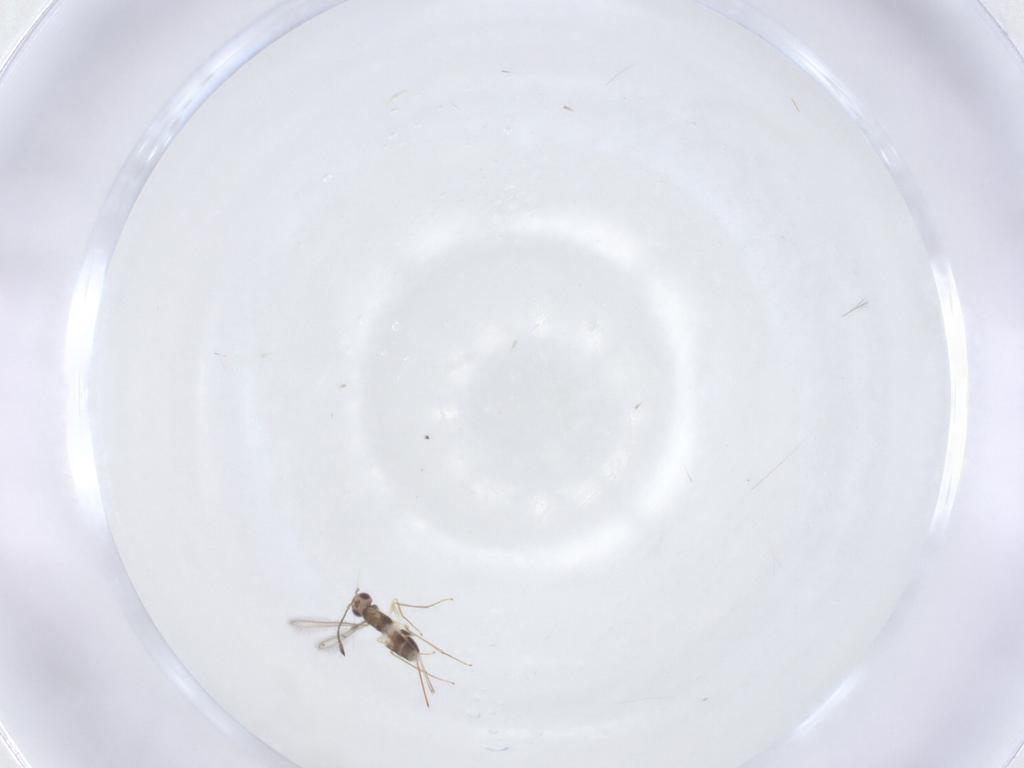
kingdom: Animalia
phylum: Arthropoda
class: Insecta
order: Hymenoptera
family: Mymaridae
